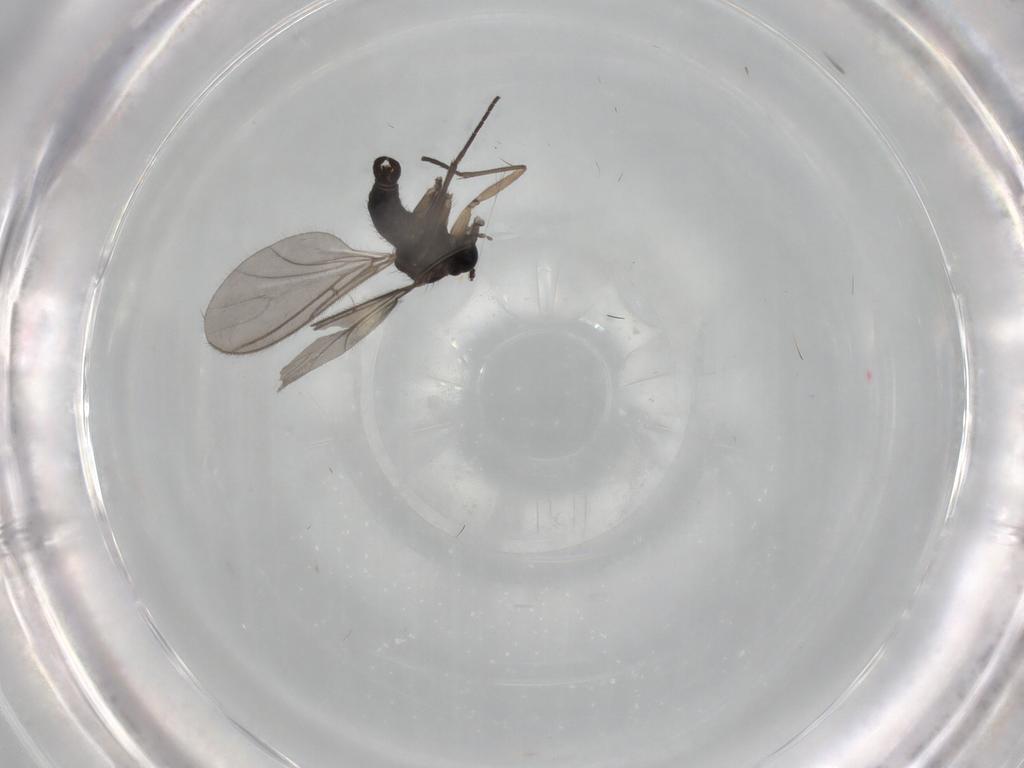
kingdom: Animalia
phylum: Arthropoda
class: Insecta
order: Diptera
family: Sciaridae
